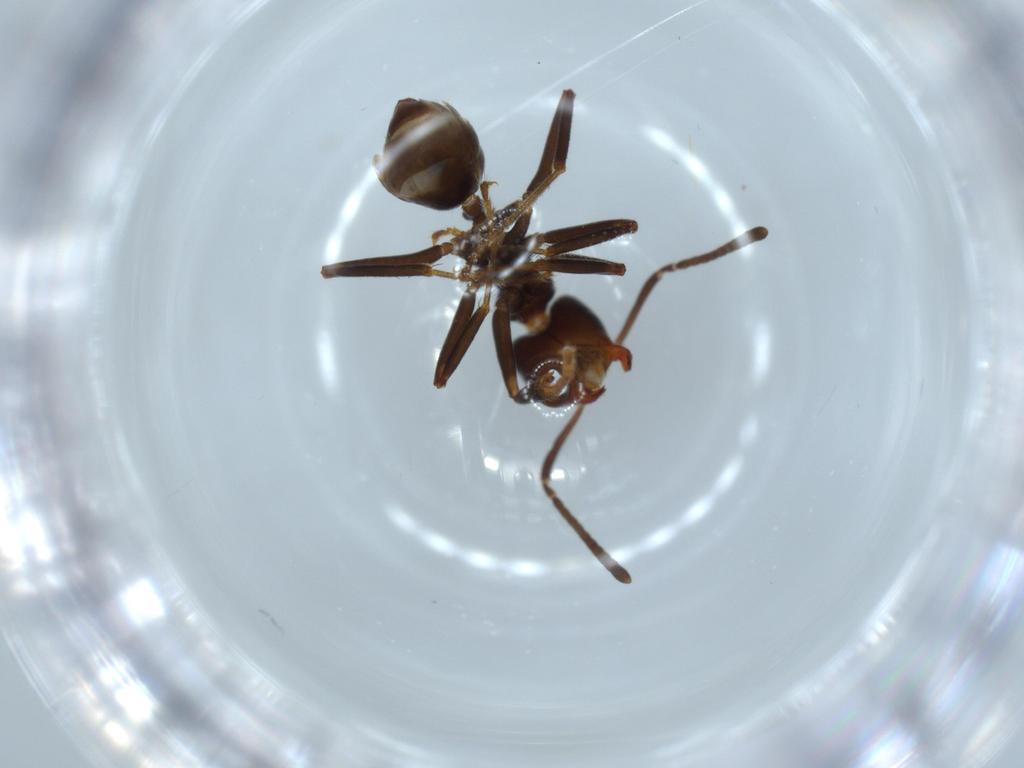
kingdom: Animalia
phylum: Arthropoda
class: Insecta
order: Hymenoptera
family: Formicidae
